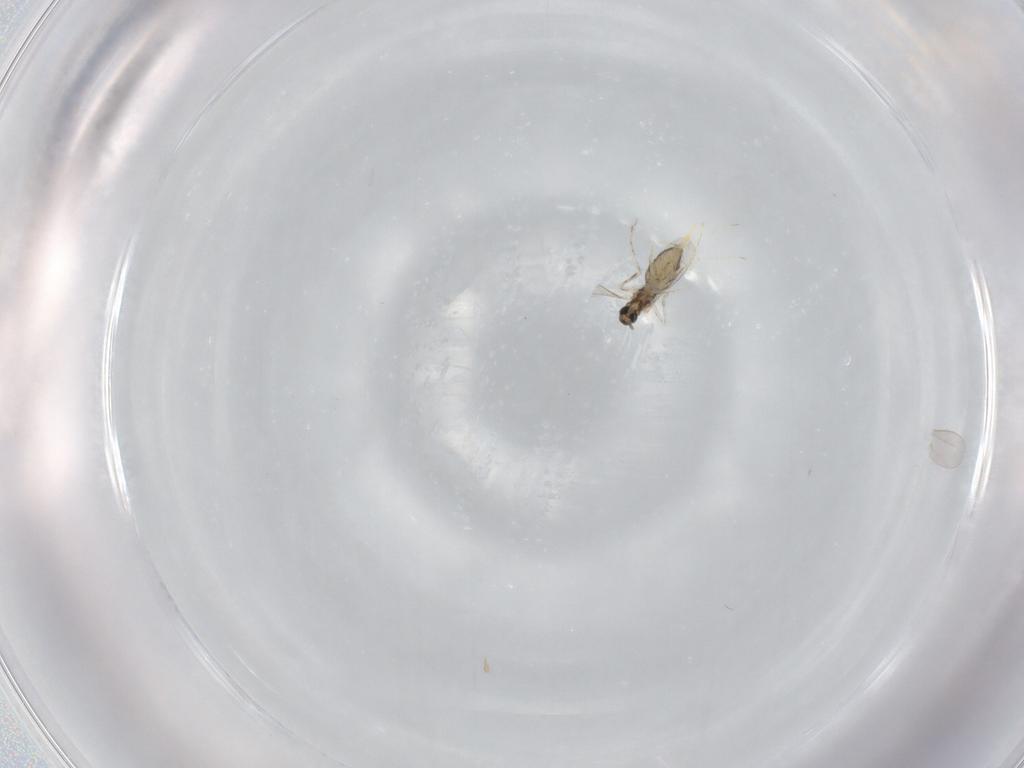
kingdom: Animalia
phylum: Arthropoda
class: Insecta
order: Diptera
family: Cecidomyiidae
